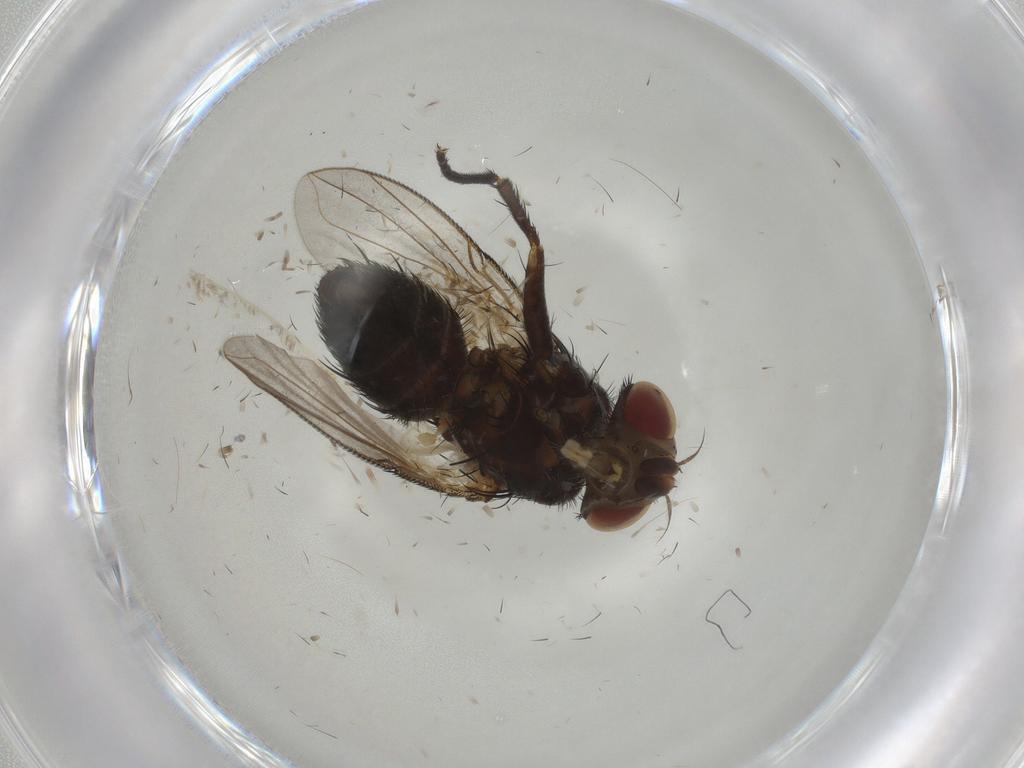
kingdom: Animalia
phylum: Arthropoda
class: Insecta
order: Diptera
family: Tachinidae
